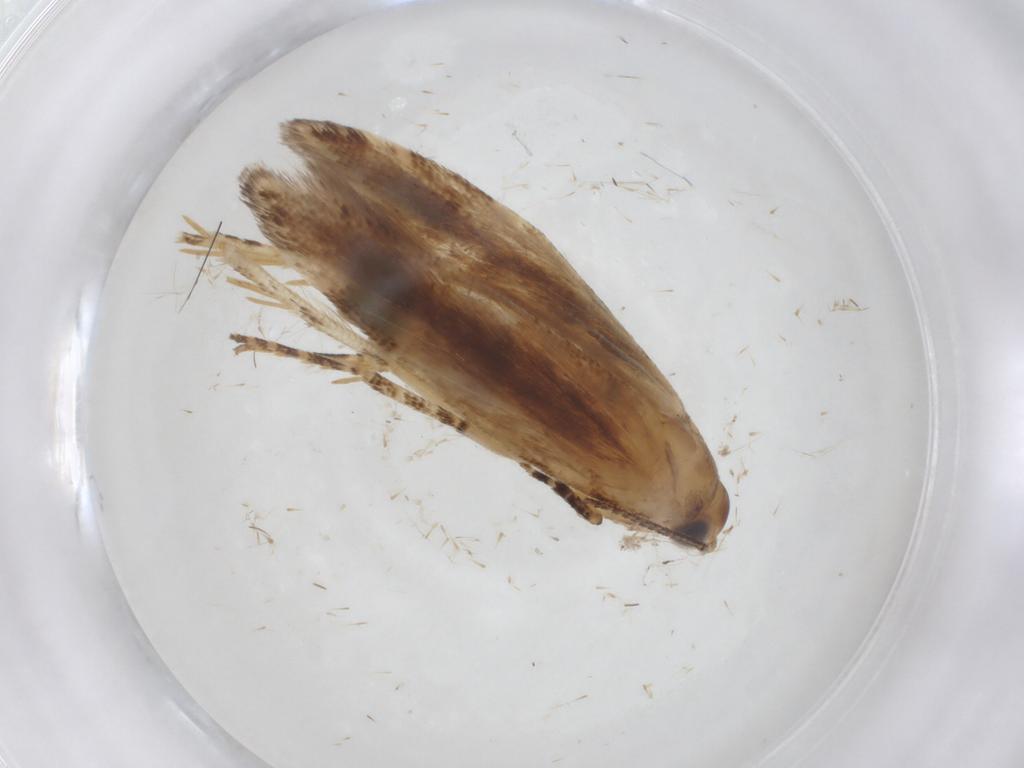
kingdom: Animalia
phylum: Arthropoda
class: Insecta
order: Lepidoptera
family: Gelechiidae
